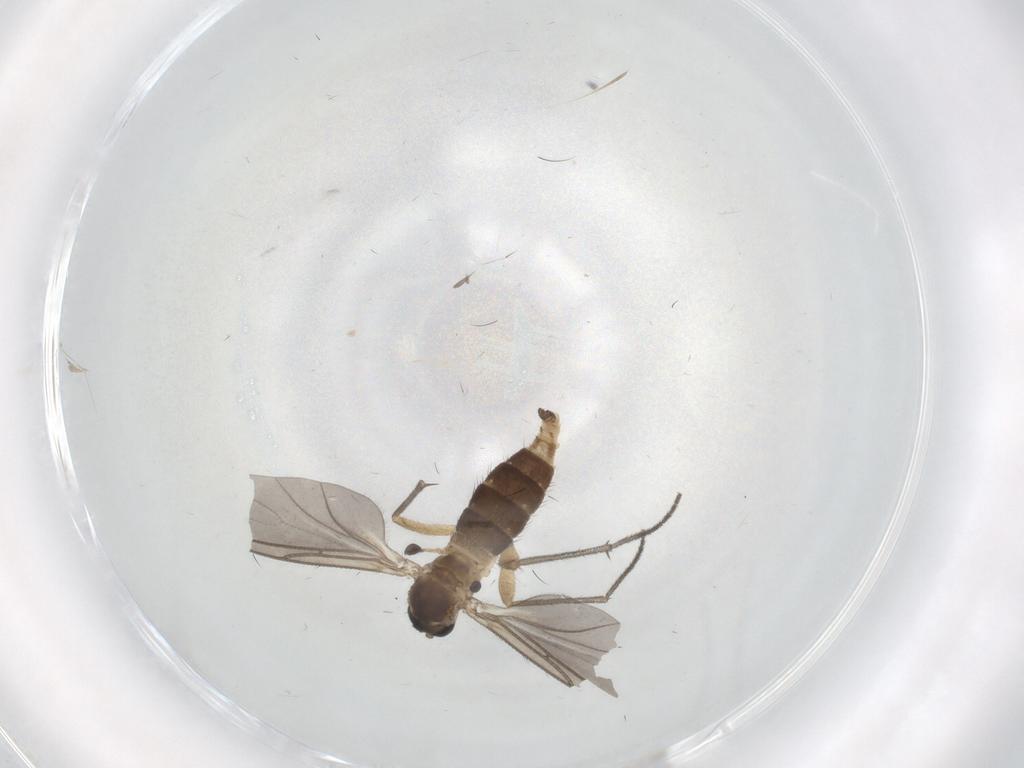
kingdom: Animalia
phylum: Arthropoda
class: Insecta
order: Diptera
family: Sciaridae
